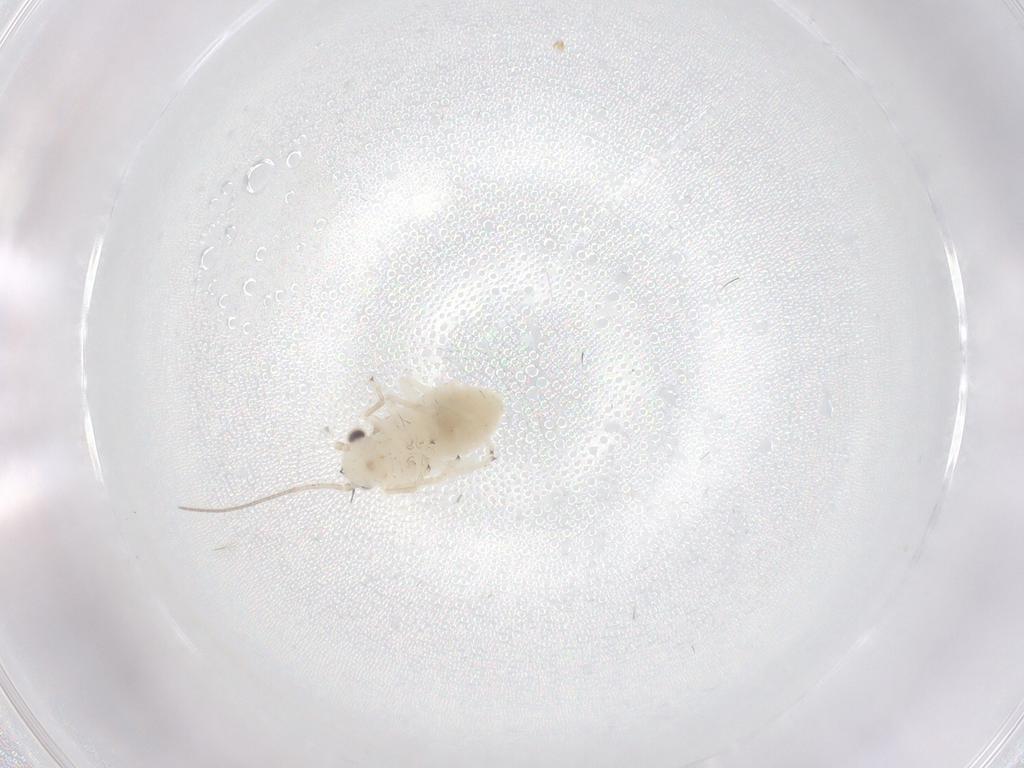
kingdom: Animalia
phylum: Arthropoda
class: Insecta
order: Psocodea
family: Caeciliusidae
